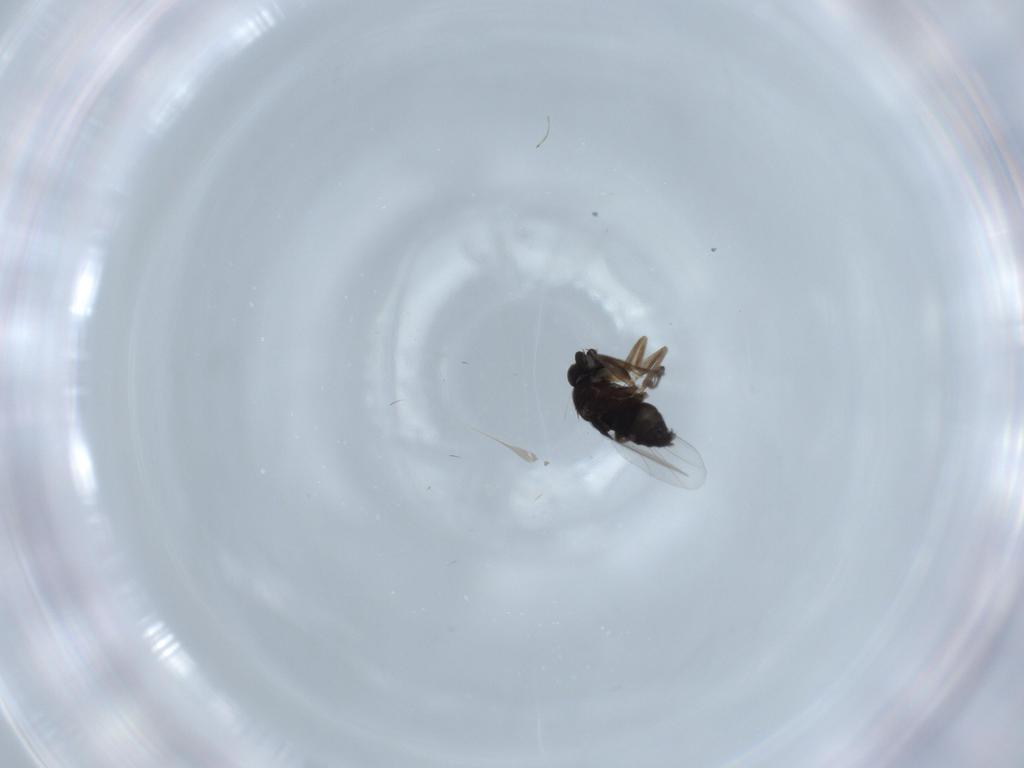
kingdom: Animalia
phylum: Arthropoda
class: Insecta
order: Diptera
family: Phoridae
